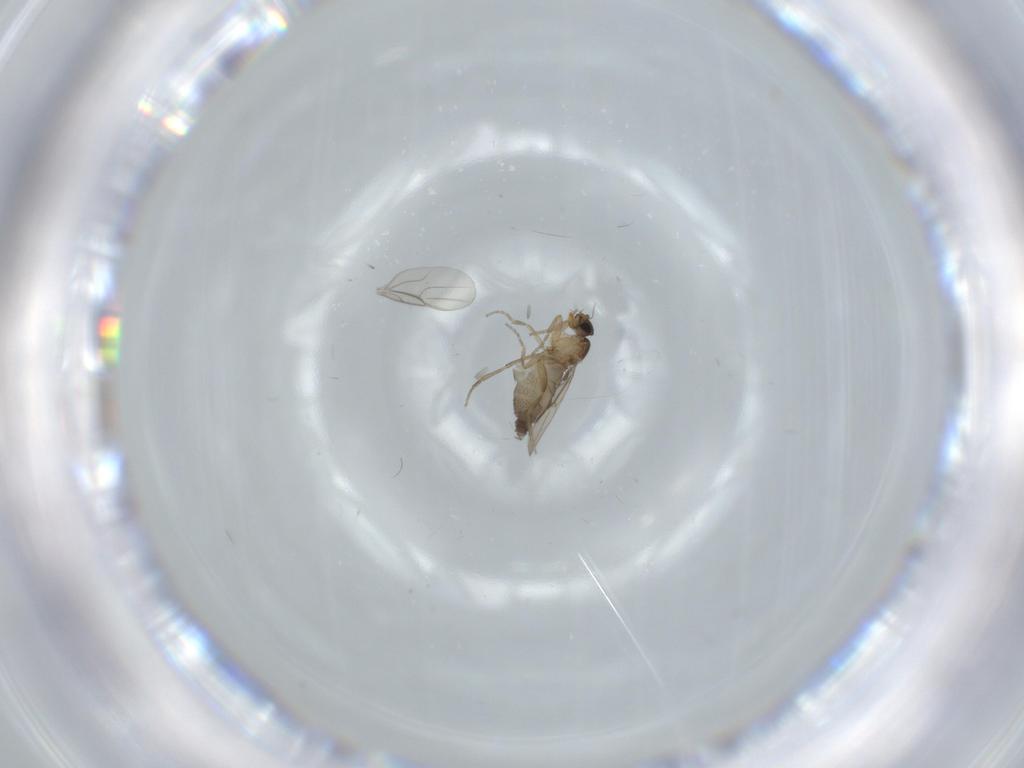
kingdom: Animalia
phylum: Arthropoda
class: Insecta
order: Diptera
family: Phoridae
